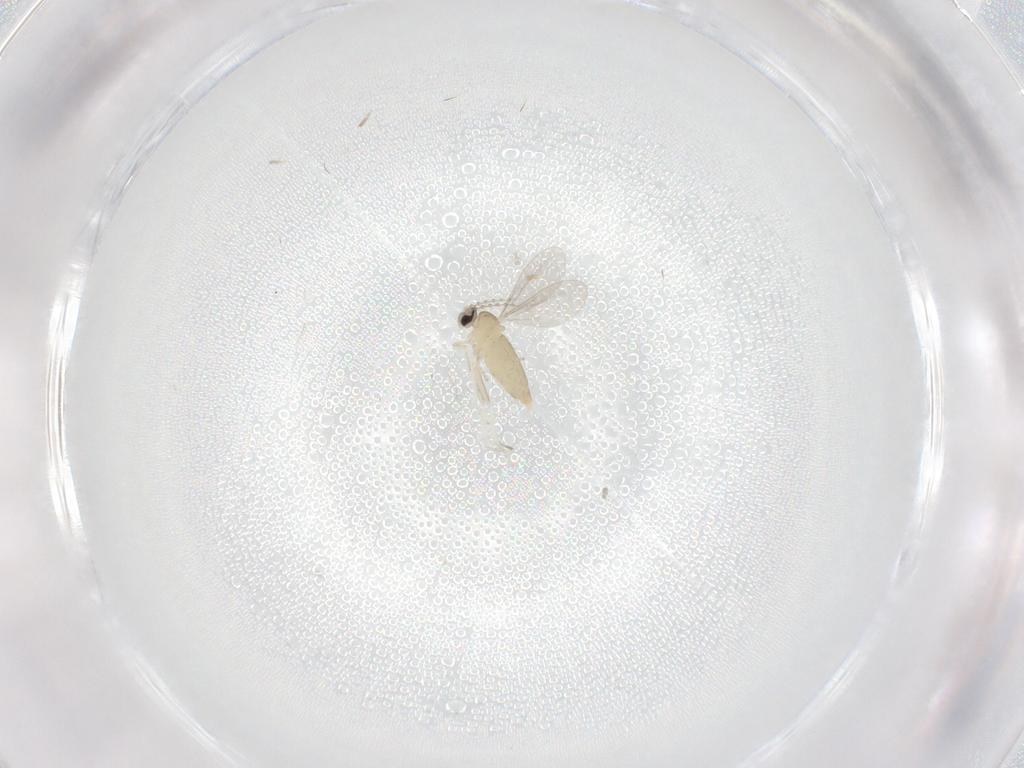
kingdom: Animalia
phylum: Arthropoda
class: Insecta
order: Diptera
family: Cecidomyiidae
